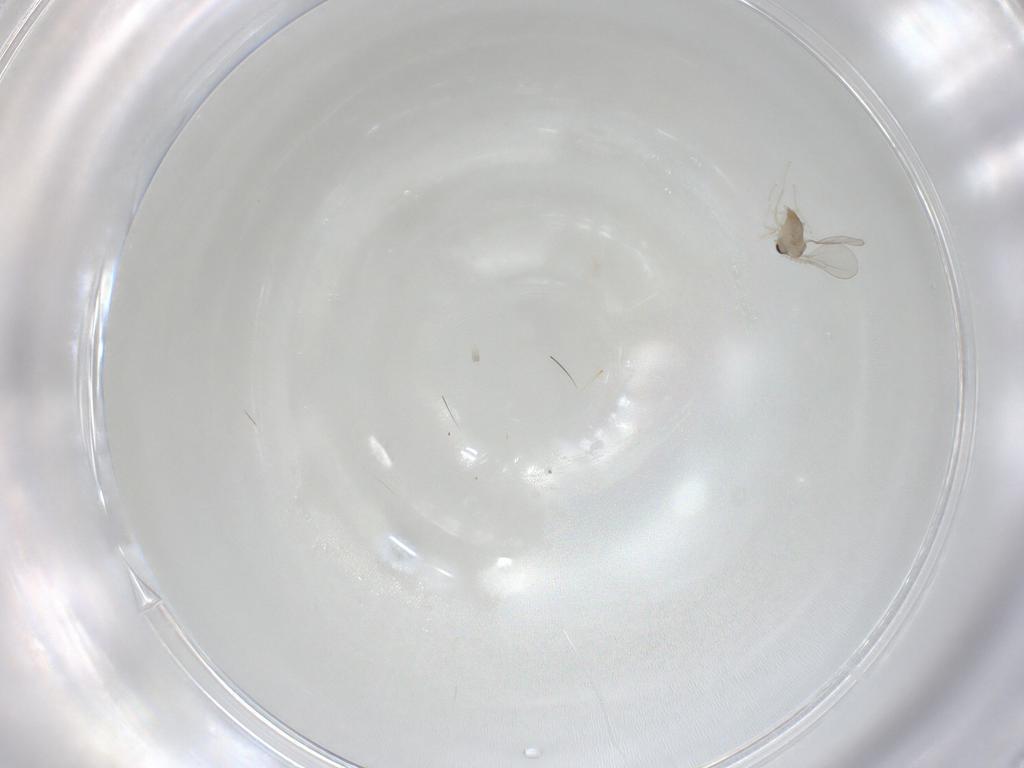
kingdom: Animalia
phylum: Arthropoda
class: Insecta
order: Diptera
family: Cecidomyiidae
